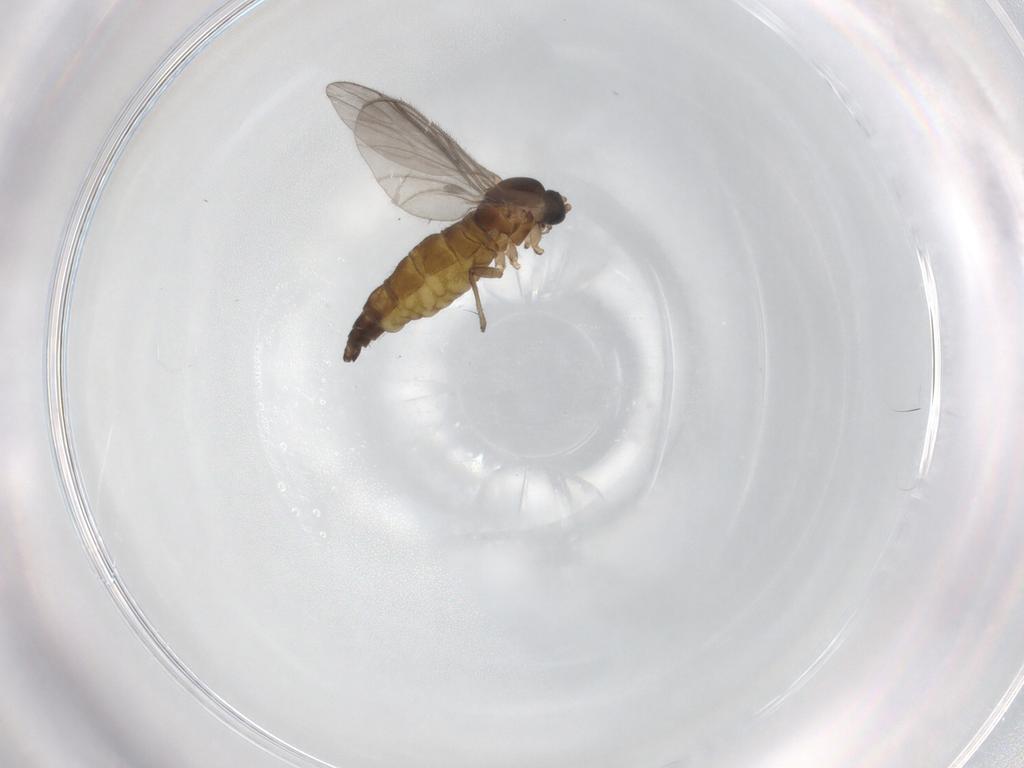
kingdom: Animalia
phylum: Arthropoda
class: Insecta
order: Diptera
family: Sciaridae
